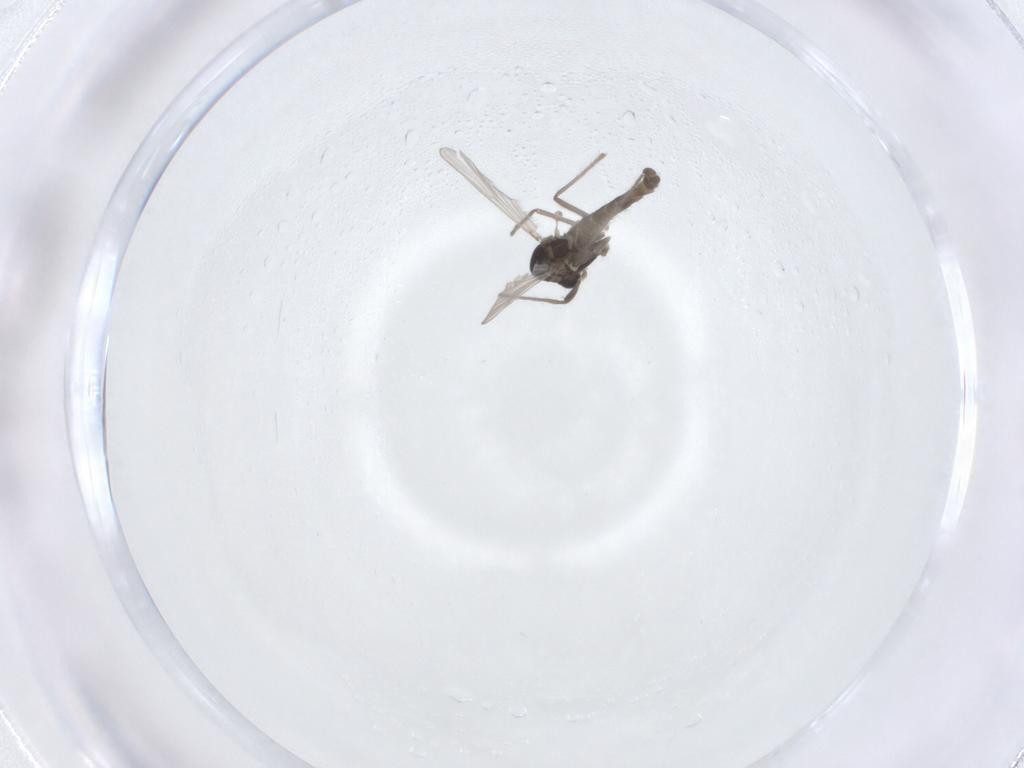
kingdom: Animalia
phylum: Arthropoda
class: Insecta
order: Diptera
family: Chironomidae
